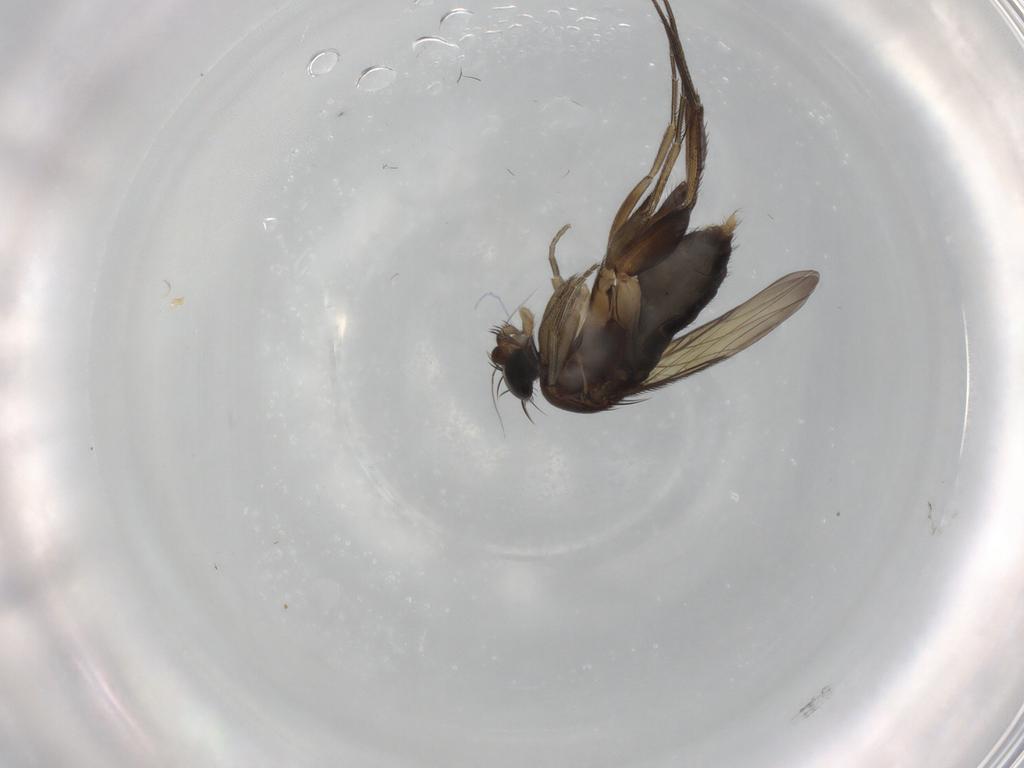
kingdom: Animalia
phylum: Arthropoda
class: Insecta
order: Diptera
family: Phoridae
